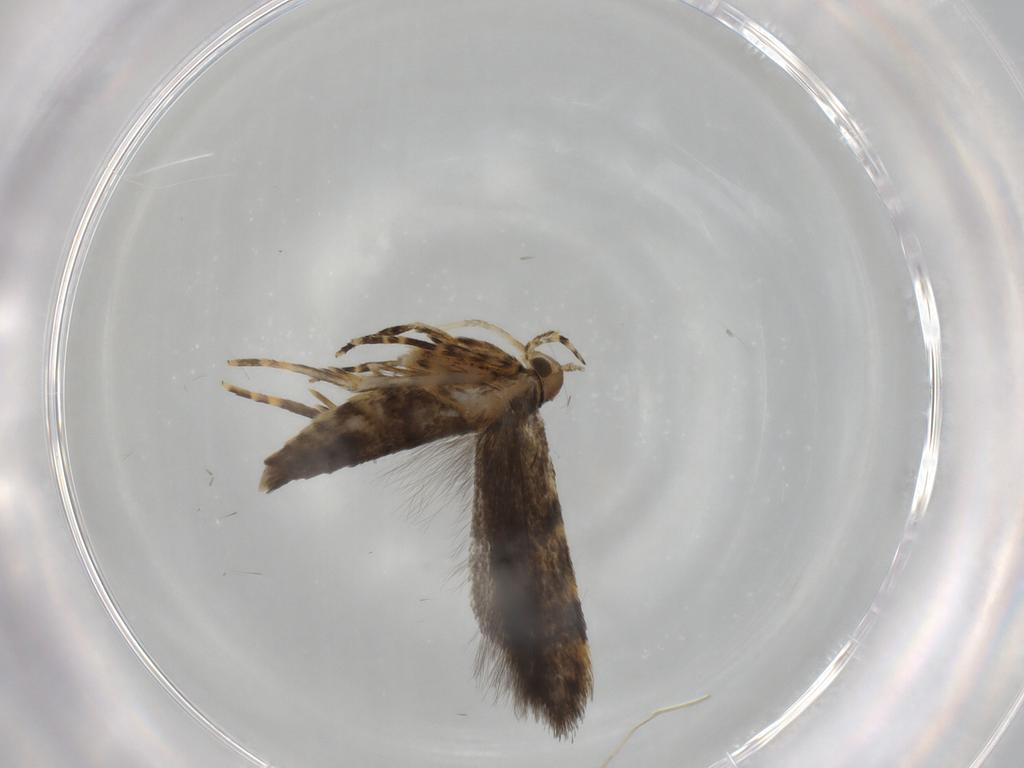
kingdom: Animalia
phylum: Arthropoda
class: Insecta
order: Lepidoptera
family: Oecophoridae
